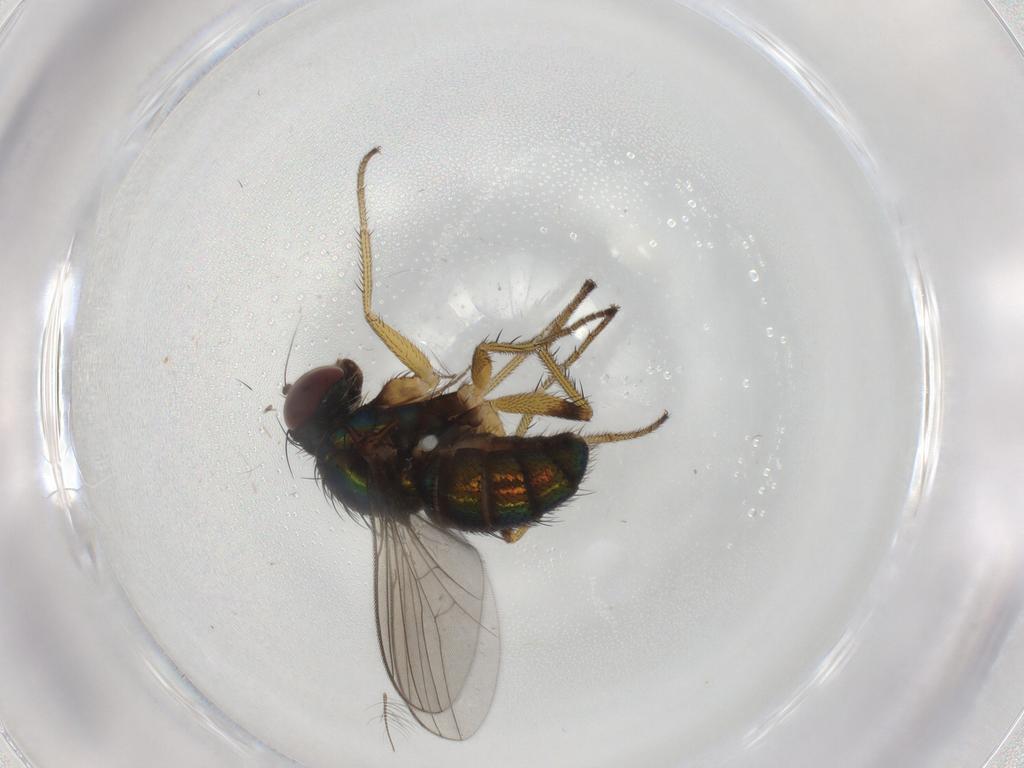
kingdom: Animalia
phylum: Arthropoda
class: Insecta
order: Diptera
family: Dolichopodidae
